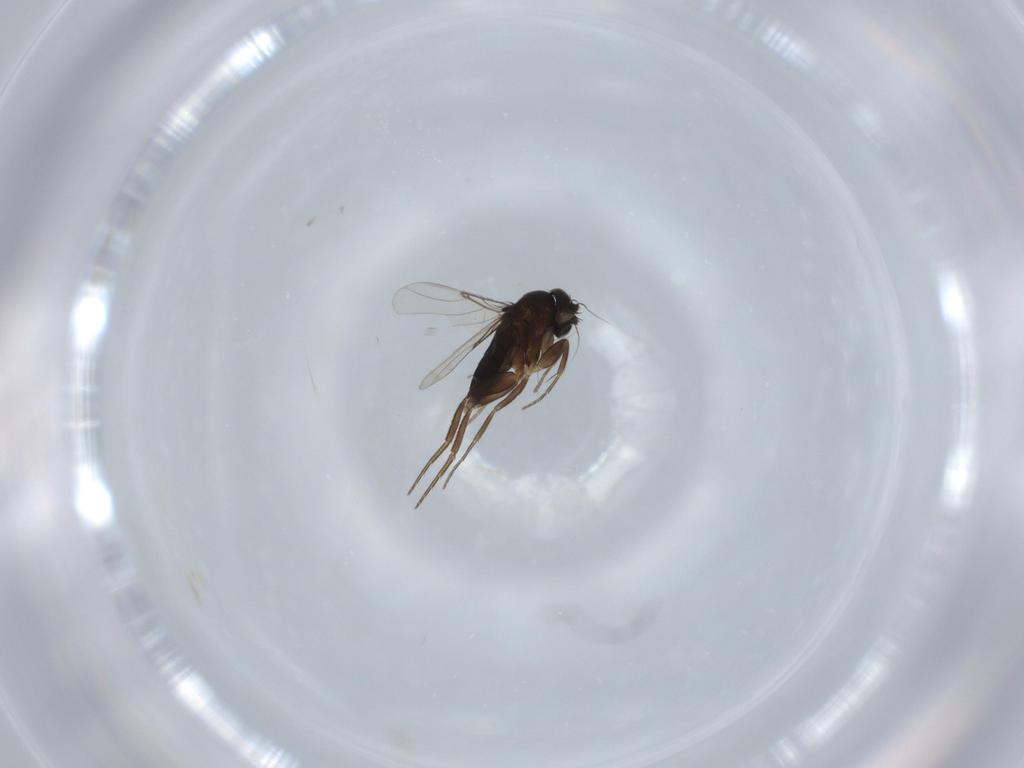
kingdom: Animalia
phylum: Arthropoda
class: Insecta
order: Diptera
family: Phoridae
